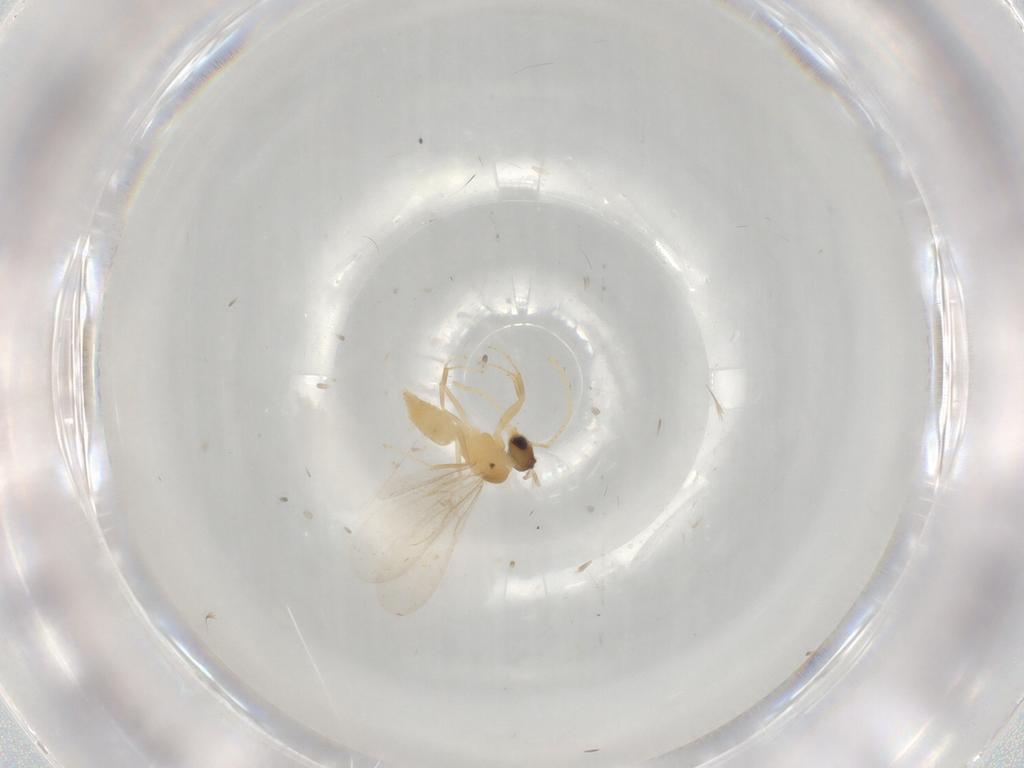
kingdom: Animalia
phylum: Arthropoda
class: Insecta
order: Hymenoptera
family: Formicidae
